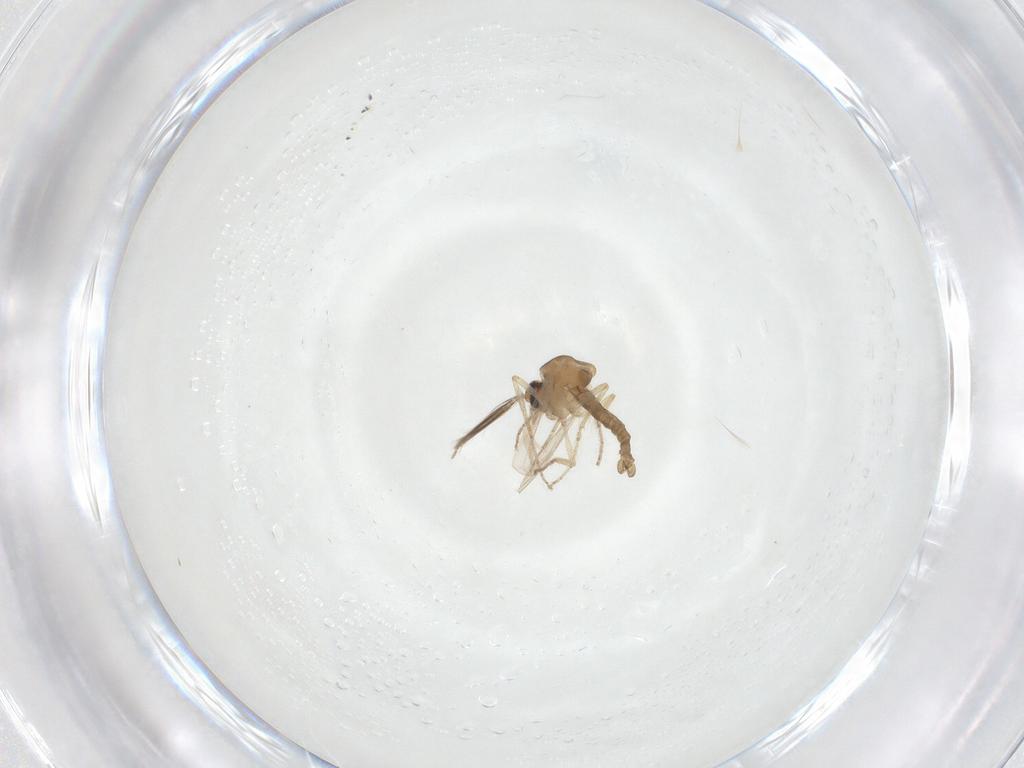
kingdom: Animalia
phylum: Arthropoda
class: Insecta
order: Diptera
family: Ceratopogonidae
